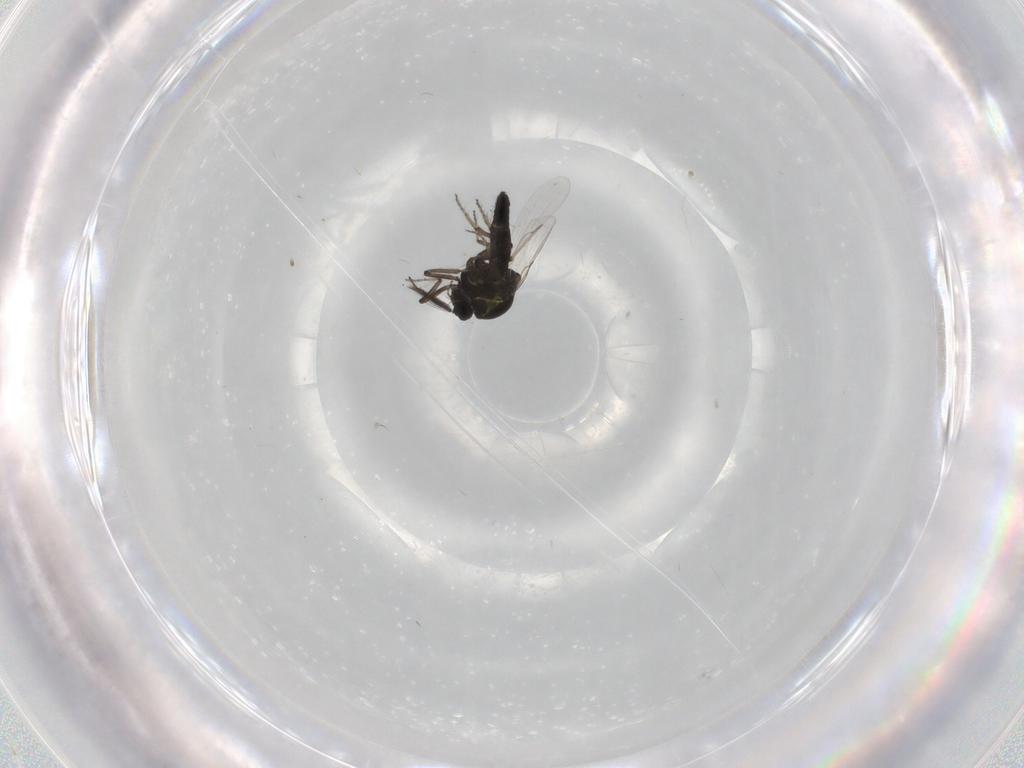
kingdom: Animalia
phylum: Arthropoda
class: Insecta
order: Diptera
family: Ceratopogonidae
